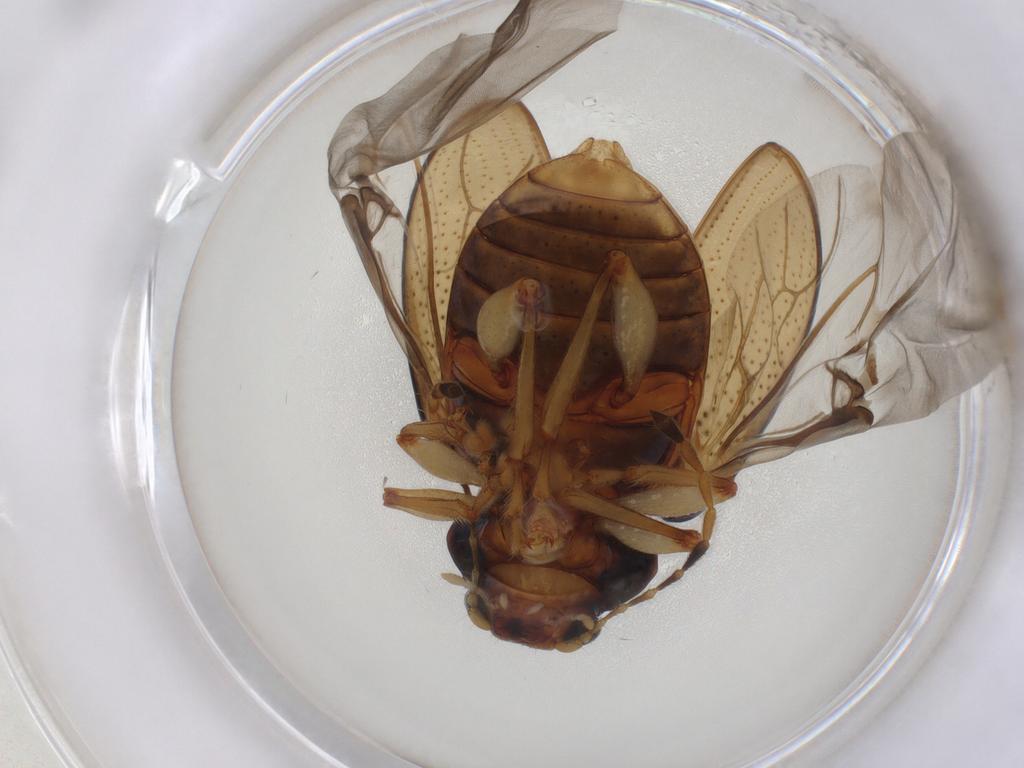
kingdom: Animalia
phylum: Arthropoda
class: Insecta
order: Coleoptera
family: Chrysomelidae
